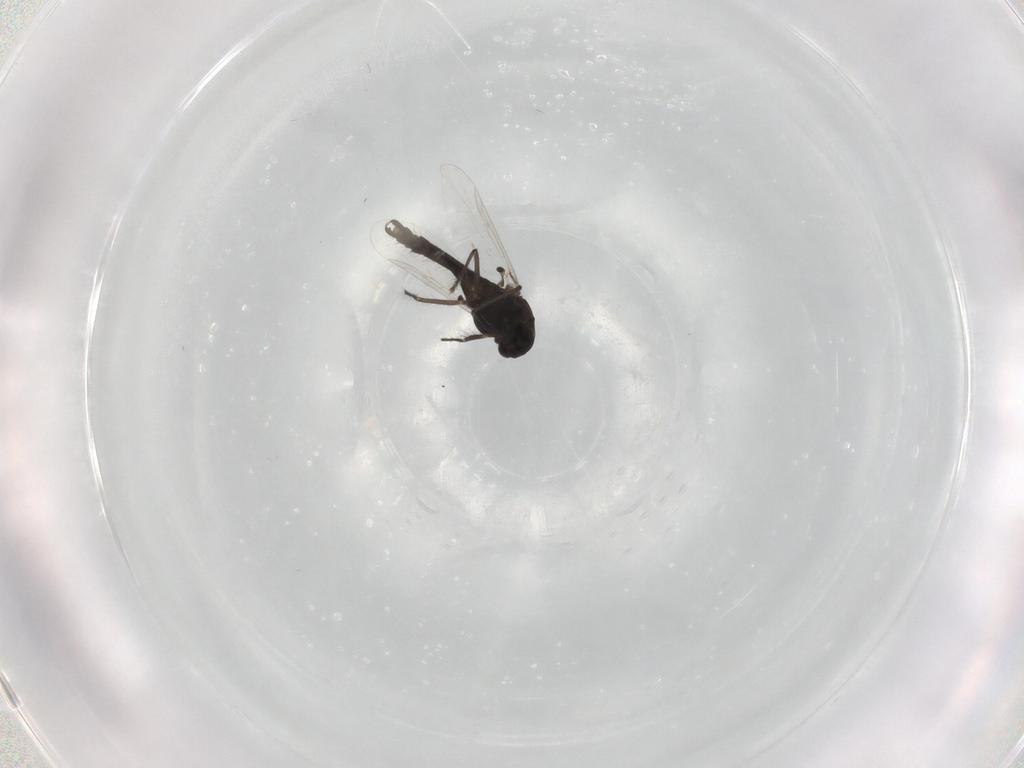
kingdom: Animalia
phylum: Arthropoda
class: Insecta
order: Diptera
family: Chironomidae
